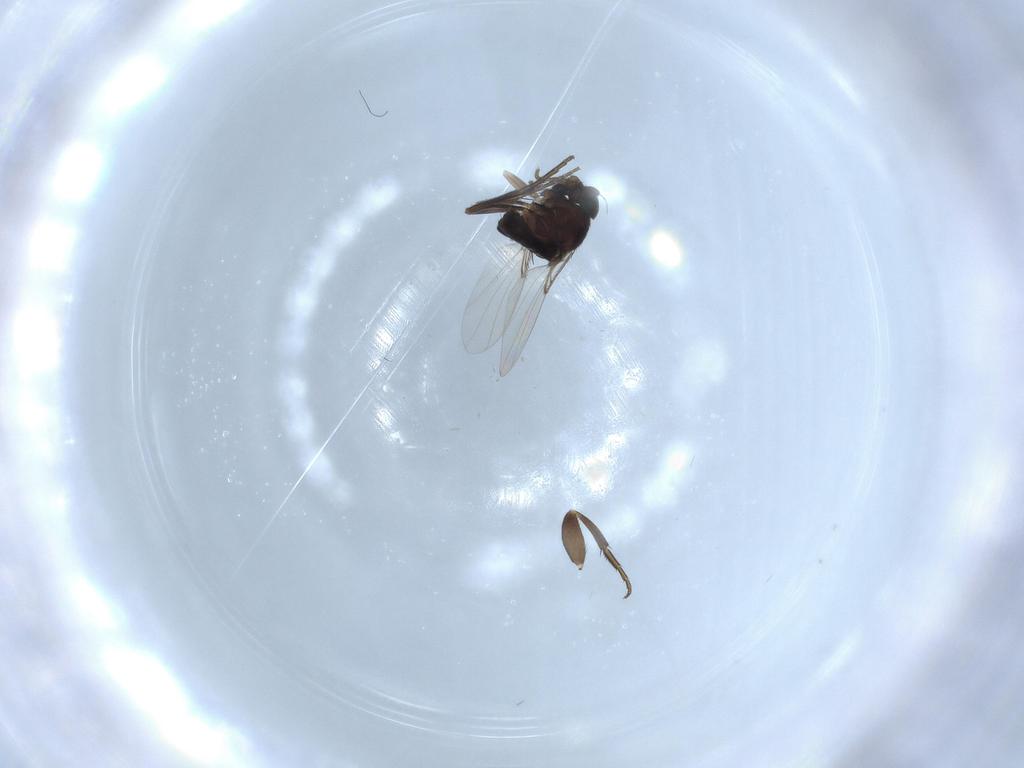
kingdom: Animalia
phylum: Arthropoda
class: Insecta
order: Diptera
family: Phoridae
